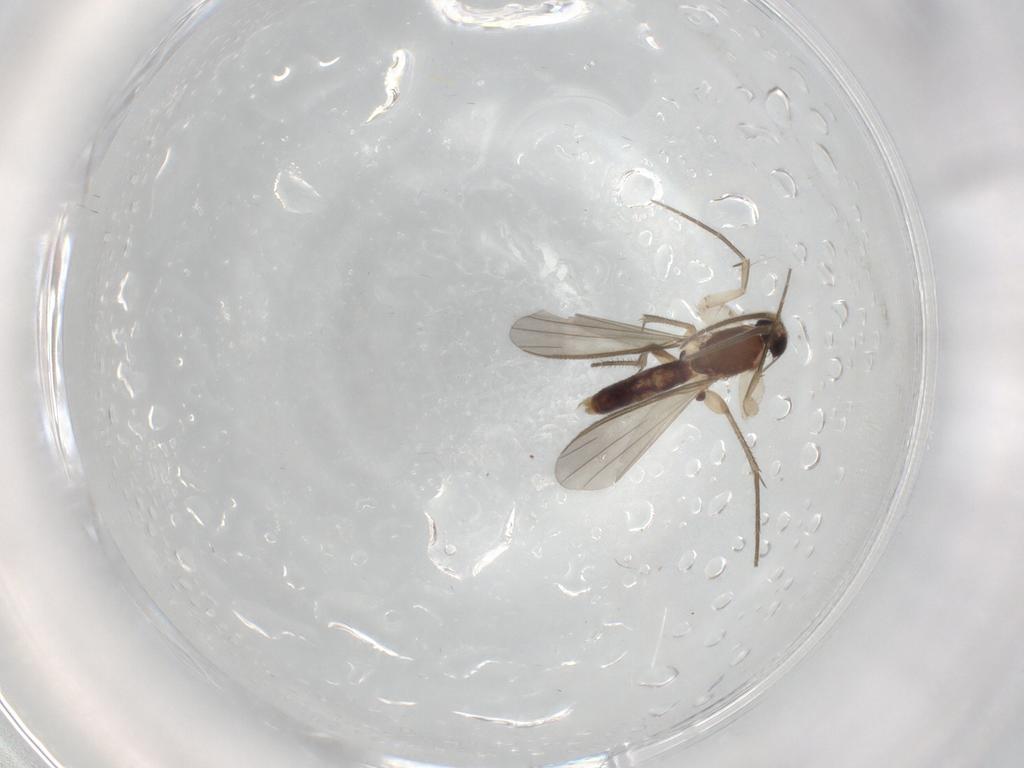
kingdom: Animalia
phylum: Arthropoda
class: Insecta
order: Diptera
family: Mycetophilidae
